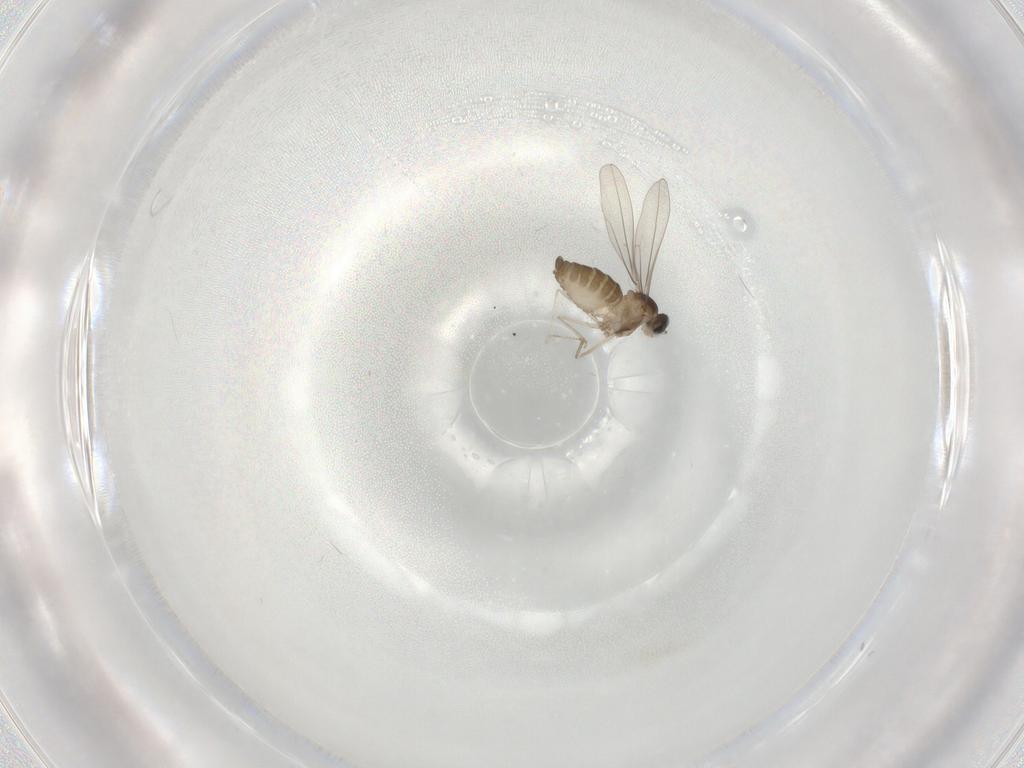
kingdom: Animalia
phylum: Arthropoda
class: Insecta
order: Diptera
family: Cecidomyiidae
